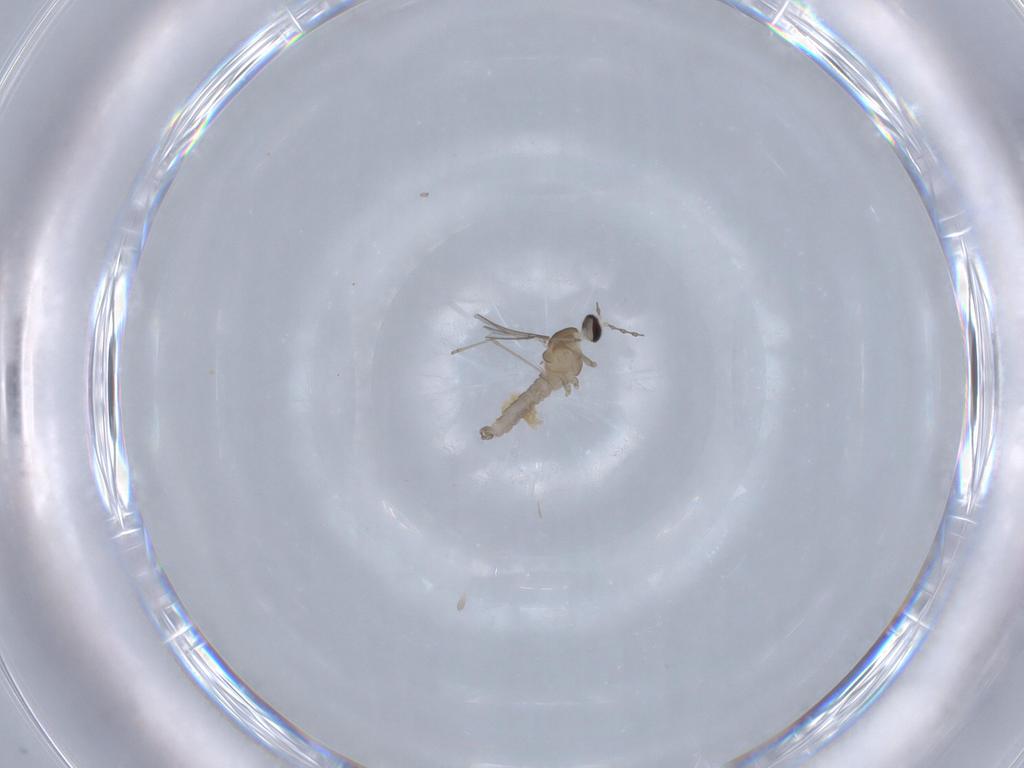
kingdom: Animalia
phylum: Arthropoda
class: Insecta
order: Diptera
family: Cecidomyiidae
